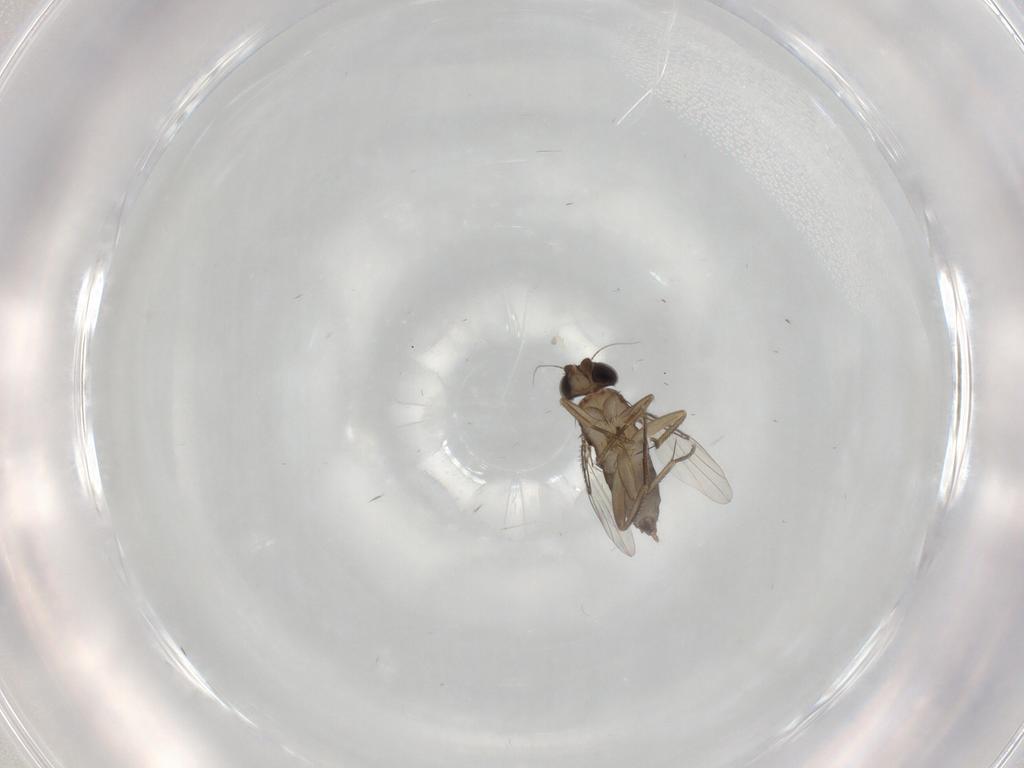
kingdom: Animalia
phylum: Arthropoda
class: Insecta
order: Diptera
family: Phoridae
